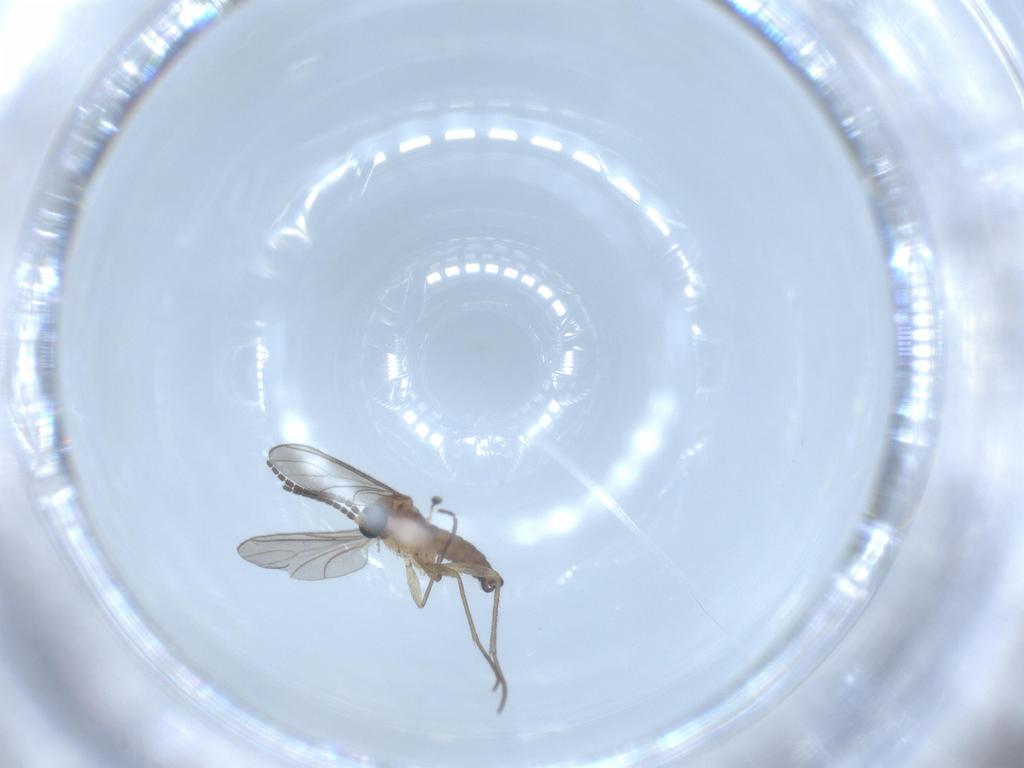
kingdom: Animalia
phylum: Arthropoda
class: Insecta
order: Diptera
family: Sciaridae
